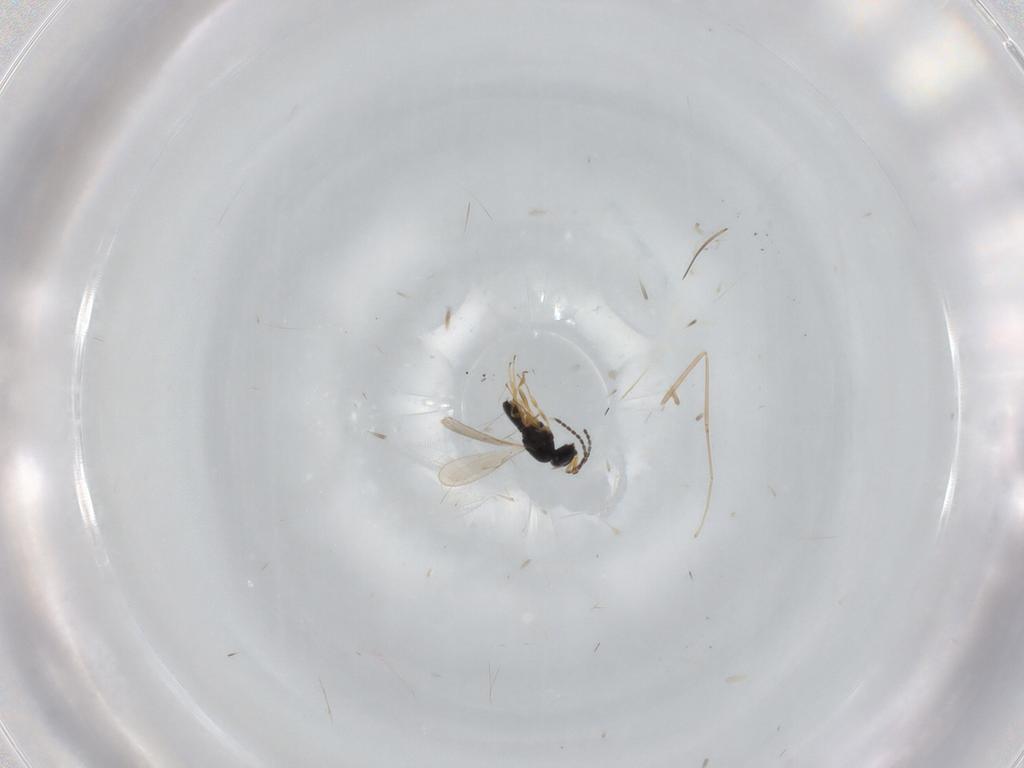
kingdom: Animalia
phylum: Arthropoda
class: Insecta
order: Hymenoptera
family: Scelionidae
